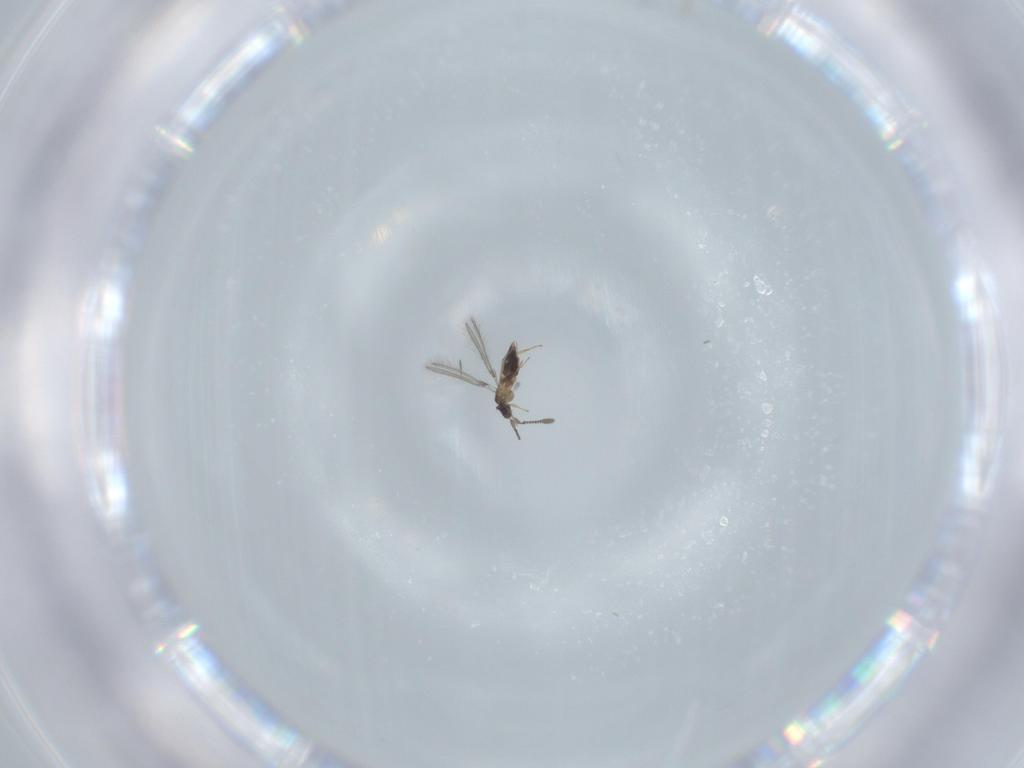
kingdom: Animalia
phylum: Arthropoda
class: Insecta
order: Hymenoptera
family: Mymaridae
